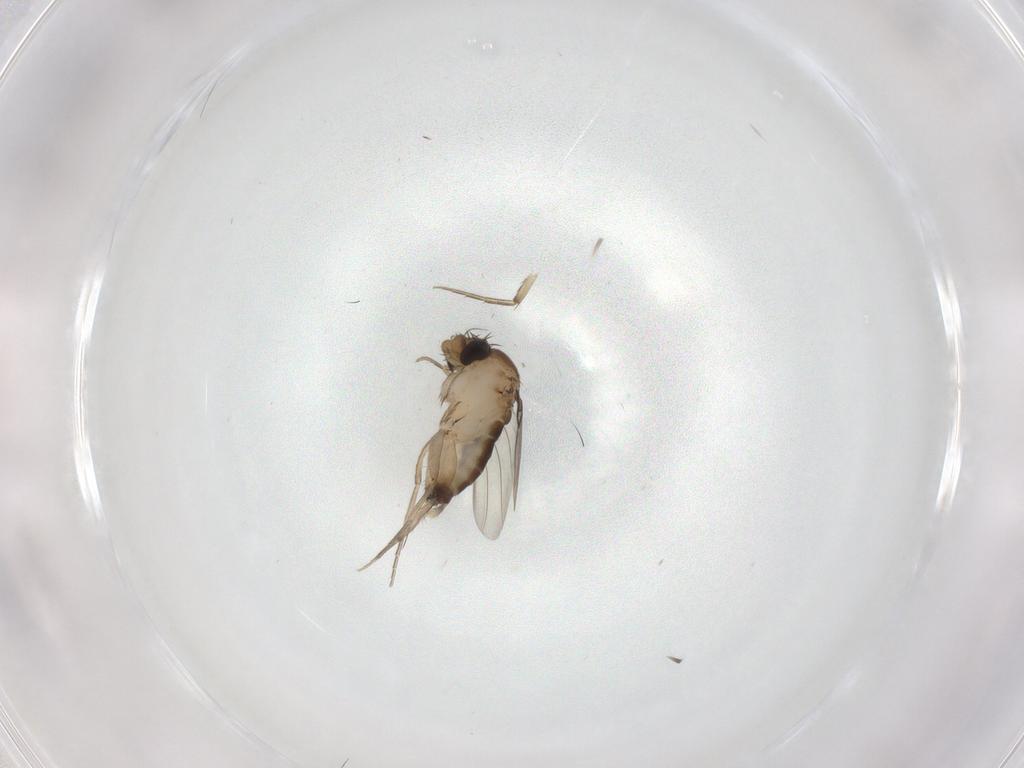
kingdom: Animalia
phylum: Arthropoda
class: Insecta
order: Diptera
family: Phoridae
